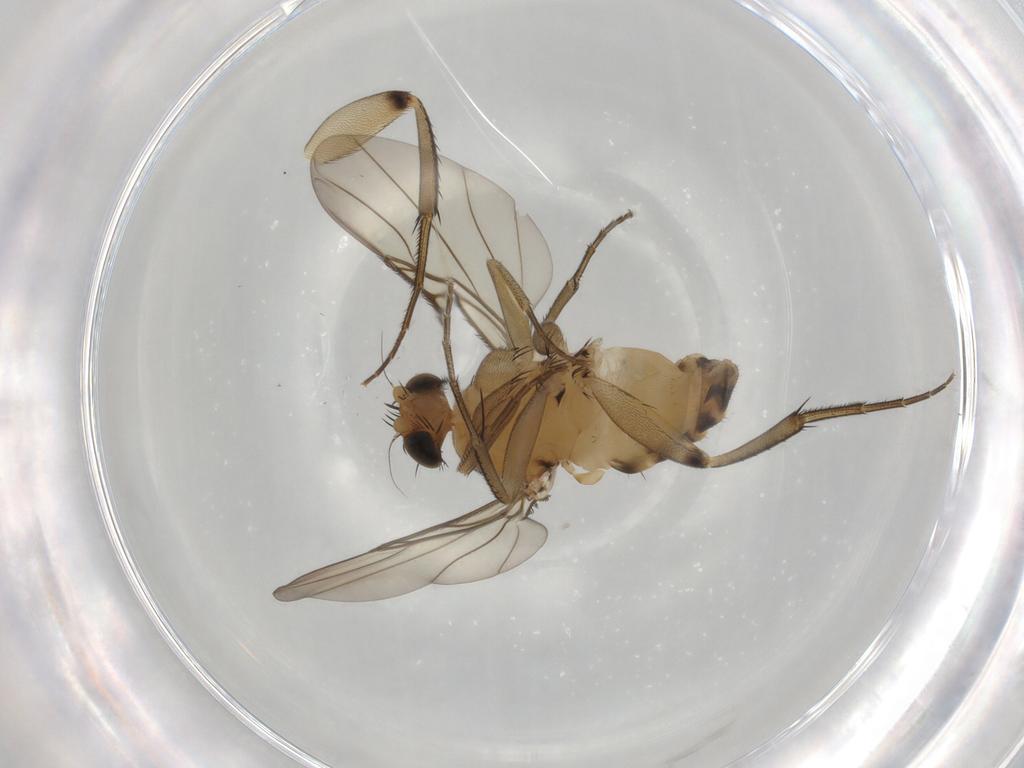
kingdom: Animalia
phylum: Arthropoda
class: Insecta
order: Diptera
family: Phoridae
